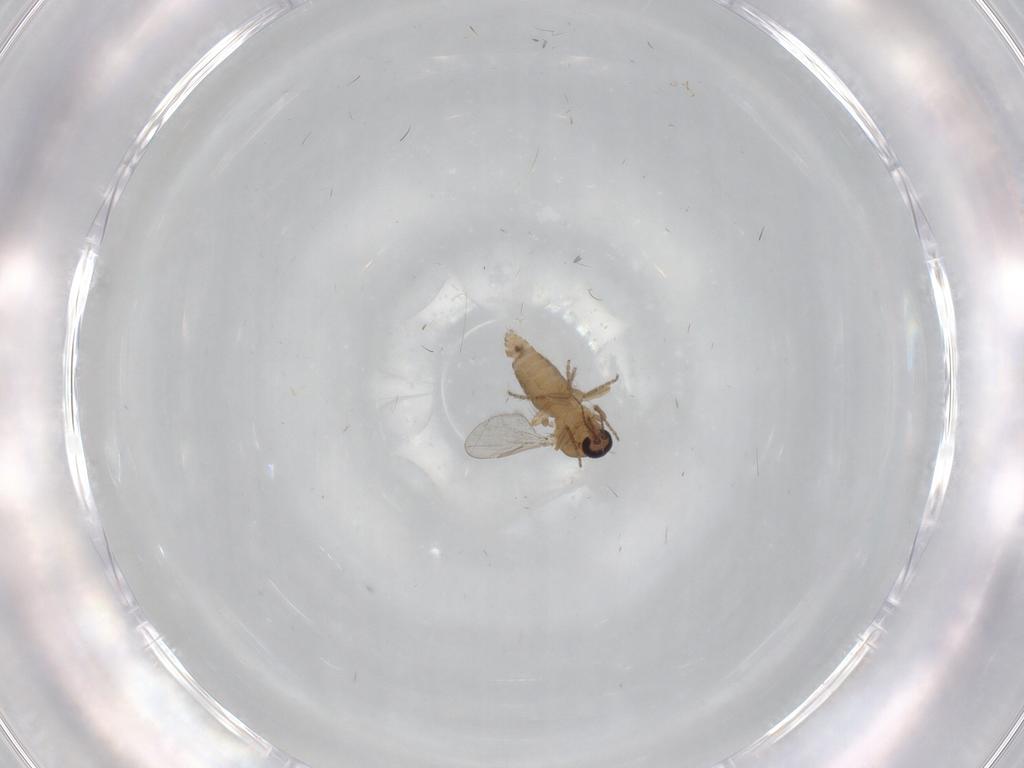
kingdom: Animalia
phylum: Arthropoda
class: Insecta
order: Diptera
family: Ceratopogonidae
